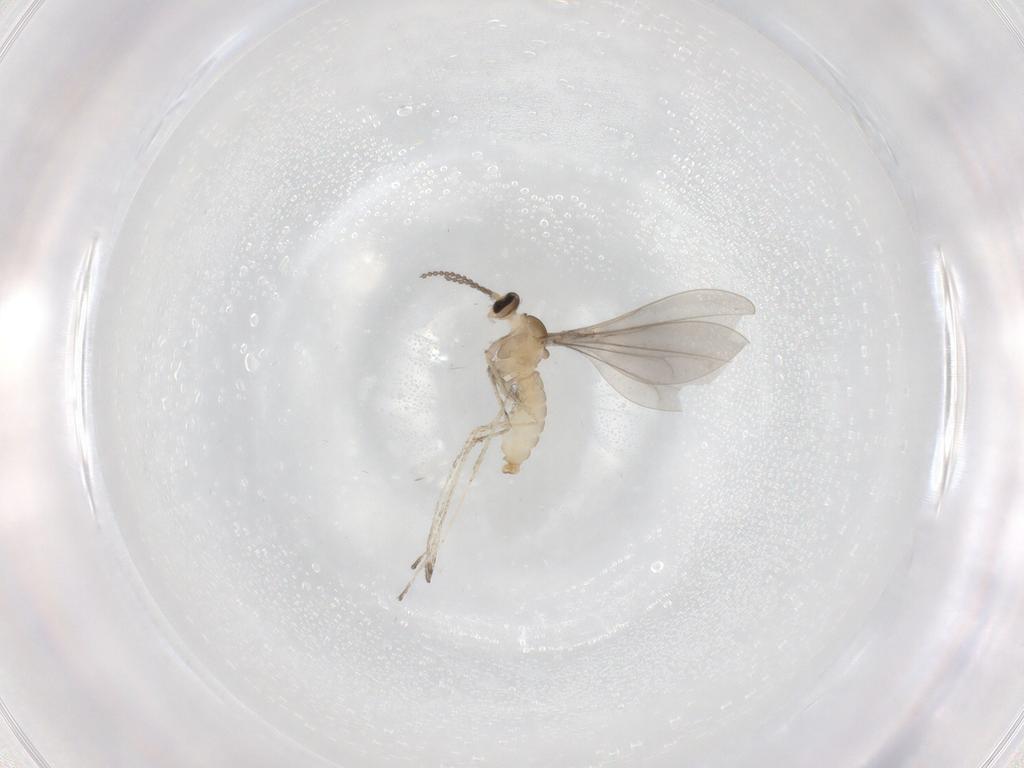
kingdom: Animalia
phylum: Arthropoda
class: Insecta
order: Diptera
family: Cecidomyiidae
